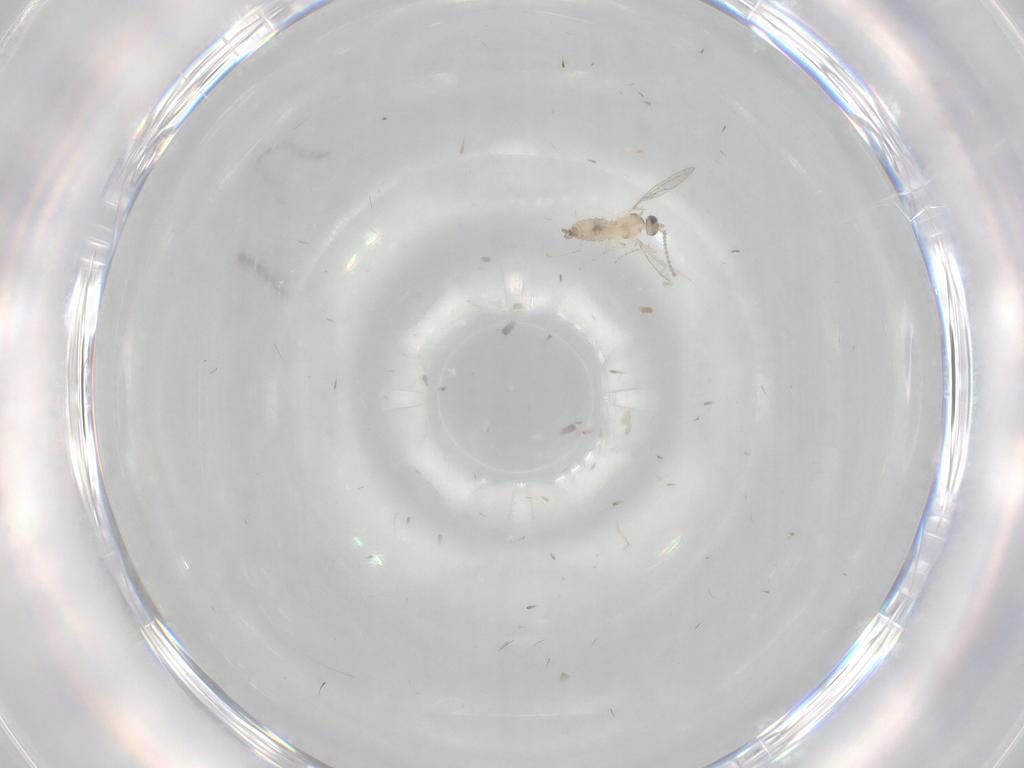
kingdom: Animalia
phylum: Arthropoda
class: Insecta
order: Diptera
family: Cecidomyiidae
